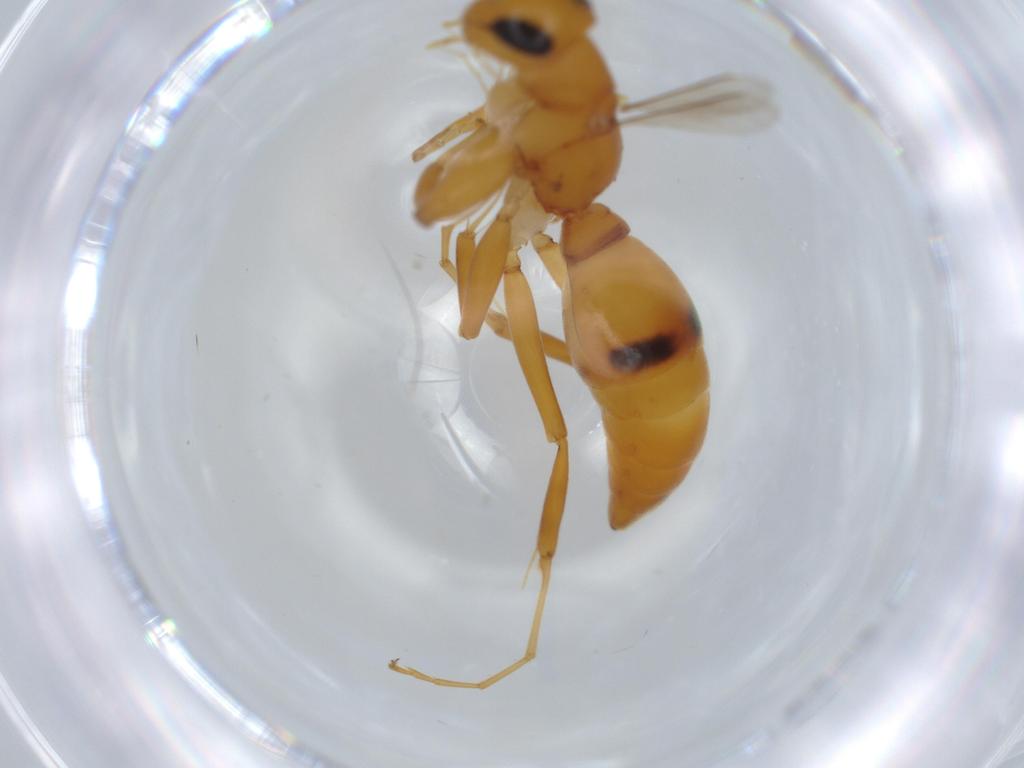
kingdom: Animalia
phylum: Arthropoda
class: Insecta
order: Hymenoptera
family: Rhopalosomatidae
